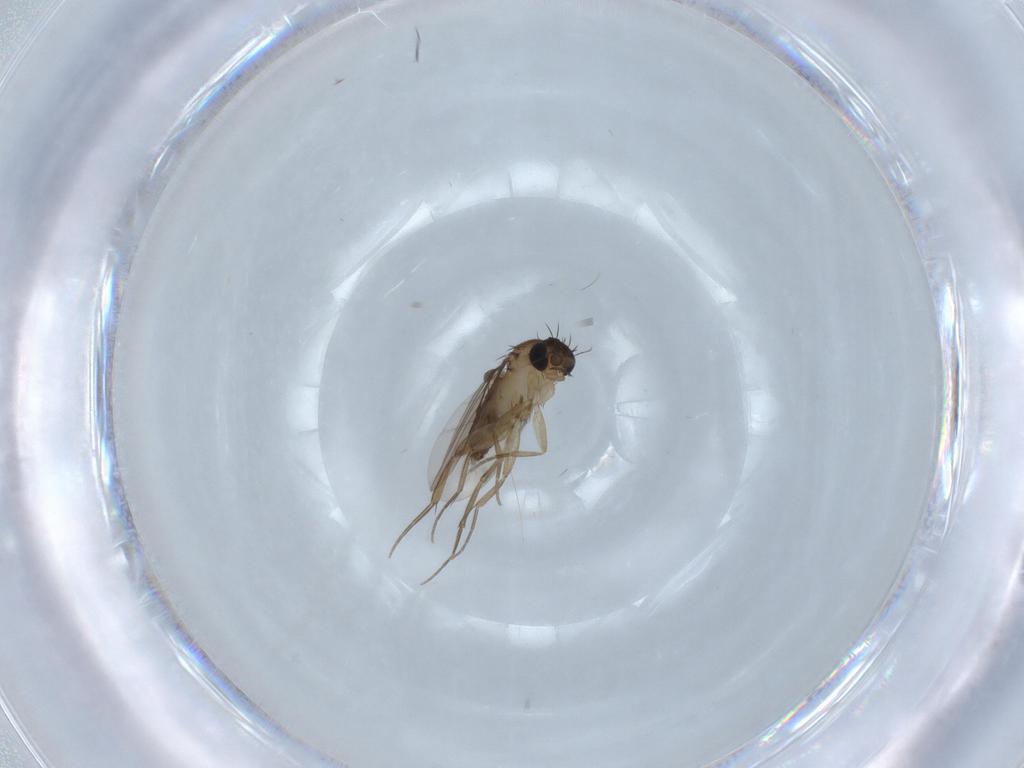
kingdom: Animalia
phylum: Arthropoda
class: Insecta
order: Diptera
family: Phoridae
